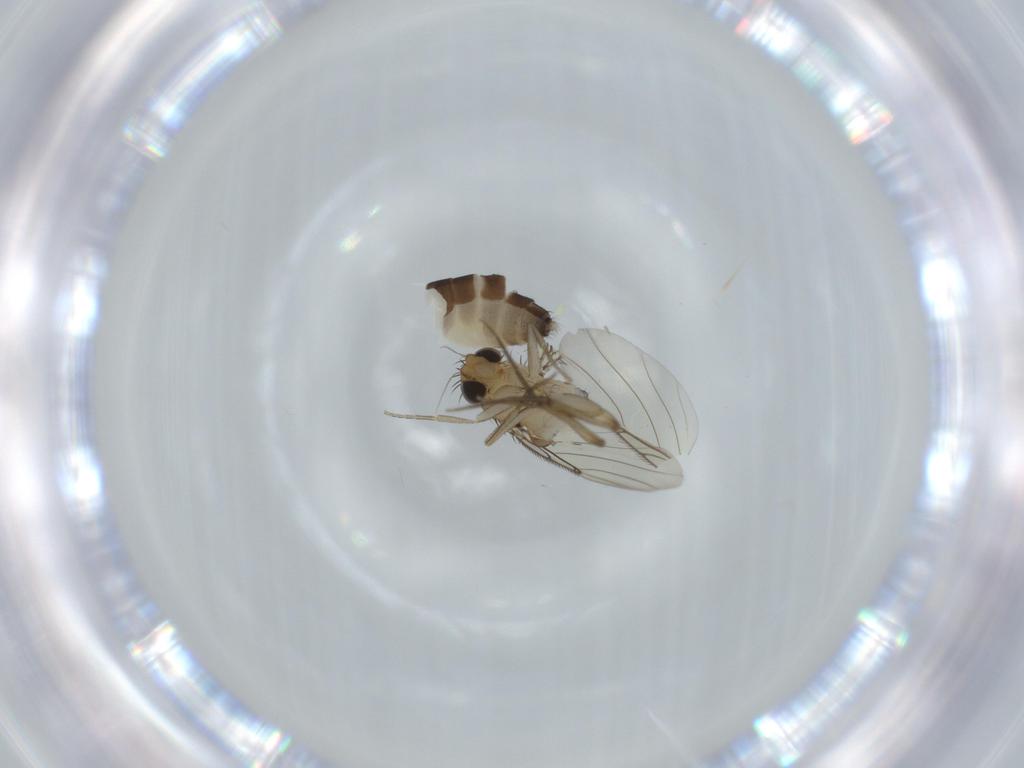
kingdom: Animalia
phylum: Arthropoda
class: Insecta
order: Diptera
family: Phoridae
